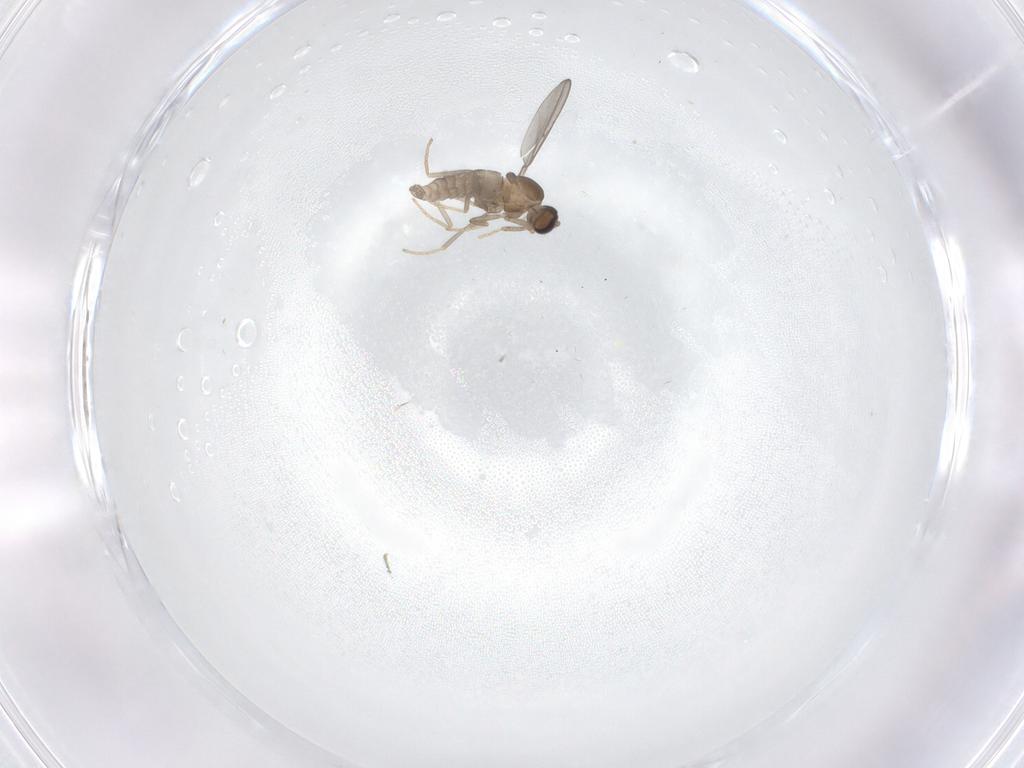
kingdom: Animalia
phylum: Arthropoda
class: Insecta
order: Diptera
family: Cecidomyiidae
